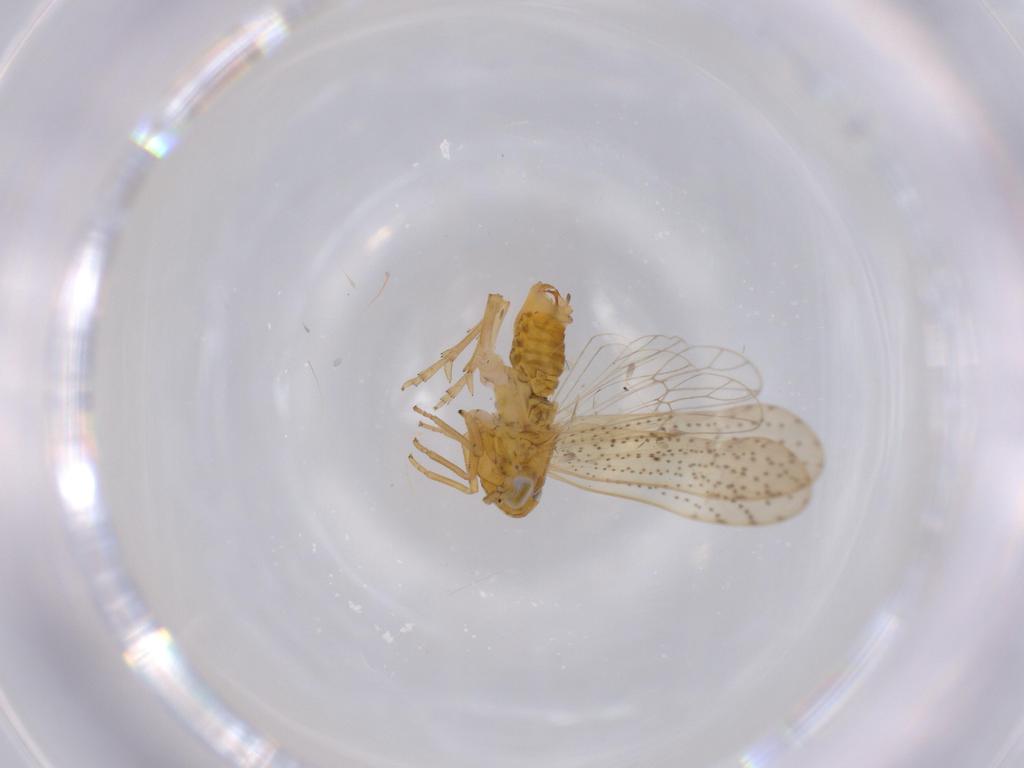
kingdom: Animalia
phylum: Arthropoda
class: Insecta
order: Hemiptera
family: Delphacidae
